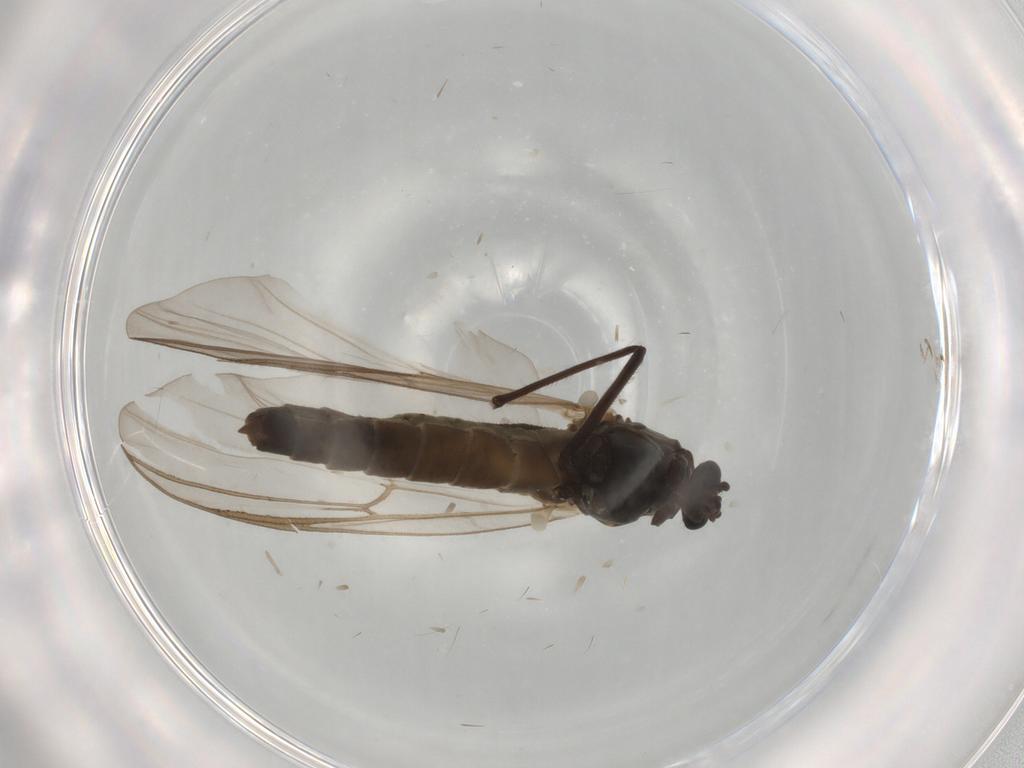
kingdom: Animalia
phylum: Arthropoda
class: Insecta
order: Diptera
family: Chironomidae
